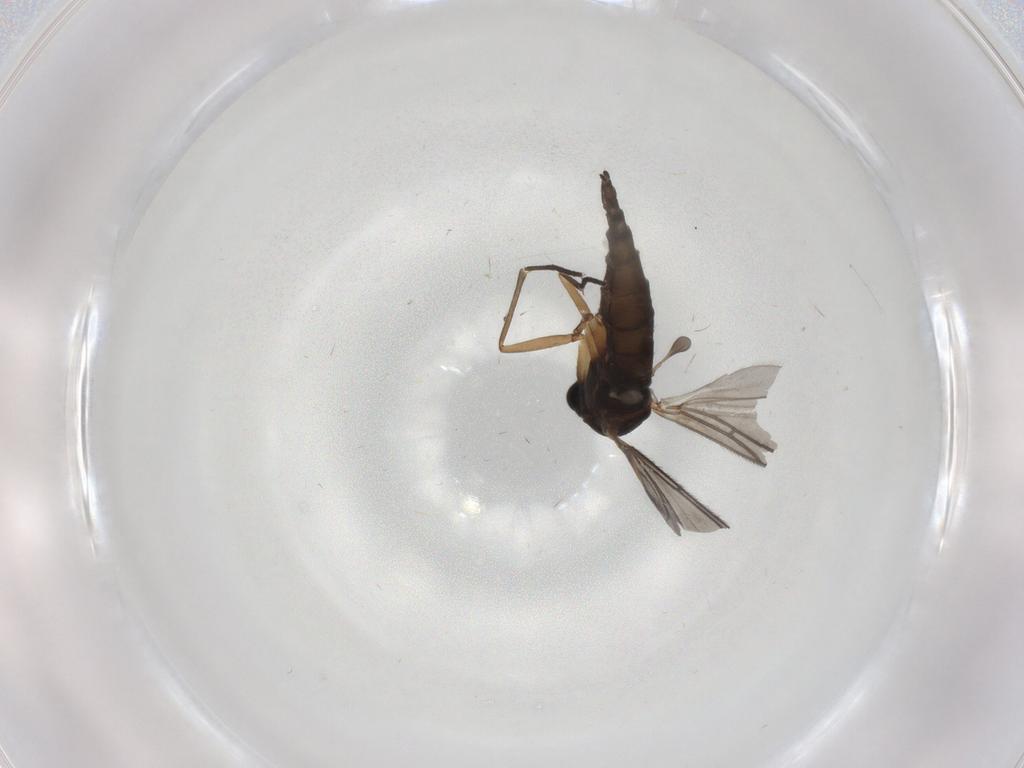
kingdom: Animalia
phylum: Arthropoda
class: Insecta
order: Diptera
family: Sciaridae
